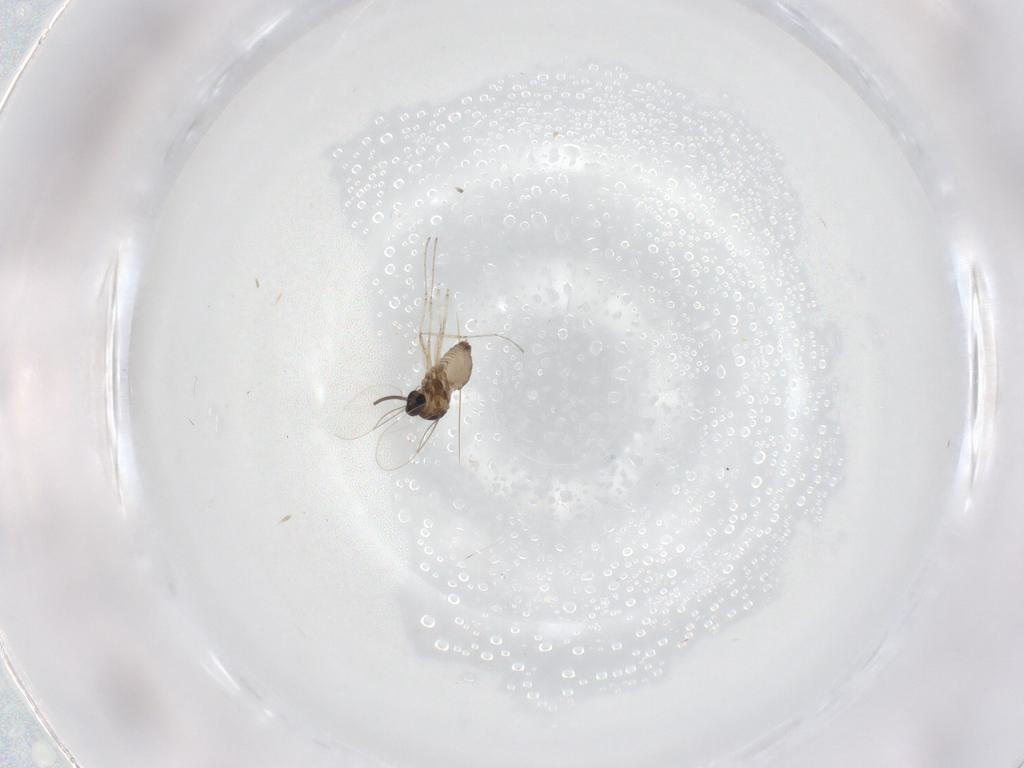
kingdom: Animalia
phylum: Arthropoda
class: Insecta
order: Diptera
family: Cecidomyiidae
